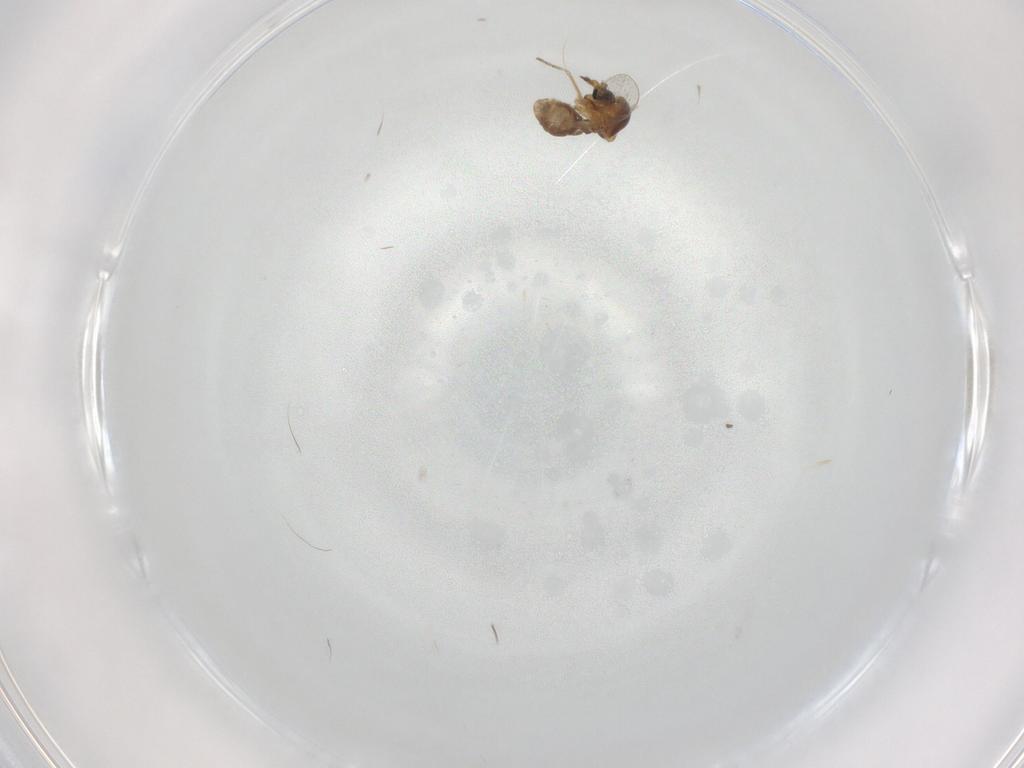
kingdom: Animalia
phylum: Arthropoda
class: Insecta
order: Diptera
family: Ceratopogonidae
